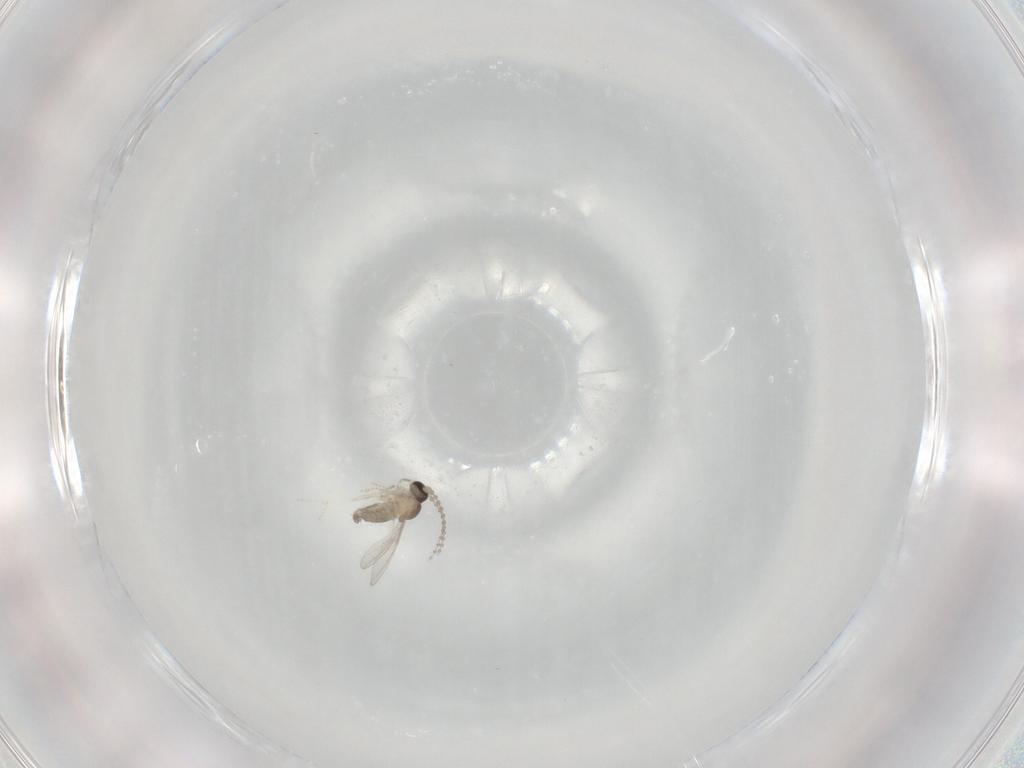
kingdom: Animalia
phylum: Arthropoda
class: Insecta
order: Diptera
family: Cecidomyiidae
